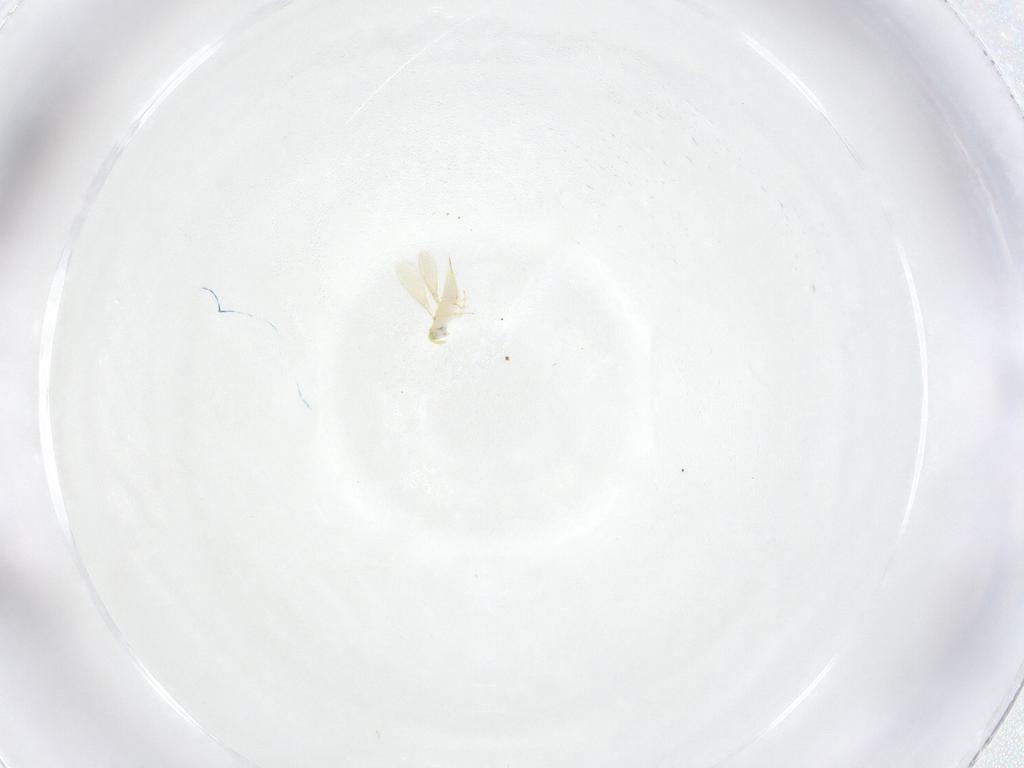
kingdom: Animalia
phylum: Arthropoda
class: Insecta
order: Hymenoptera
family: Aphelinidae
